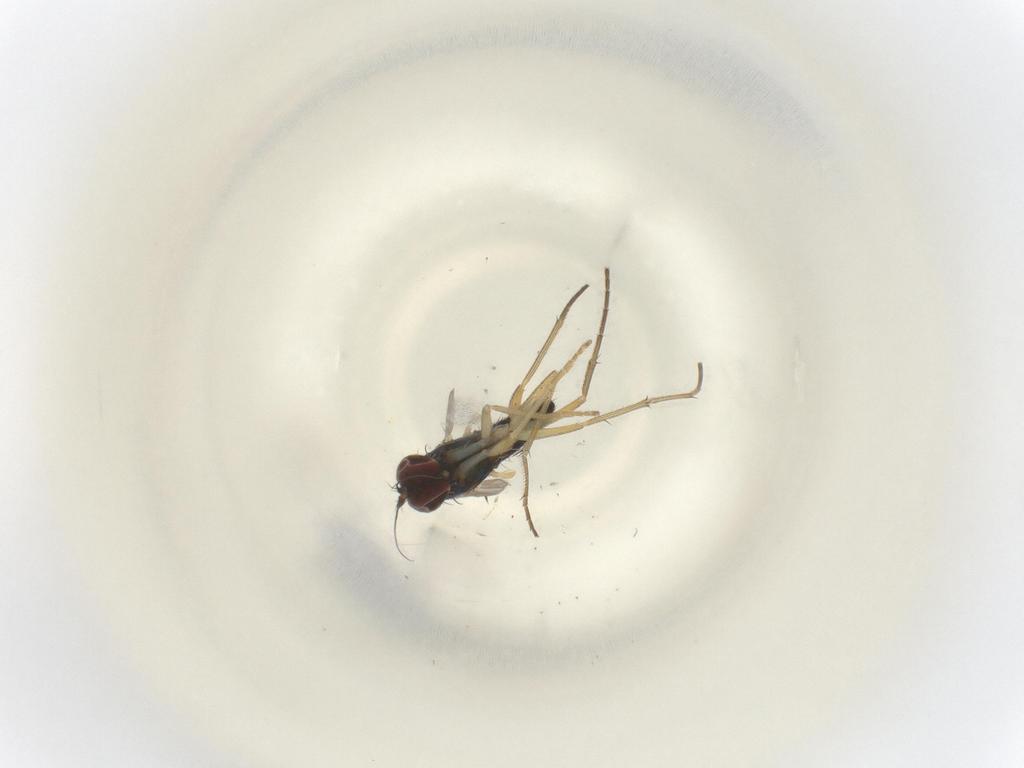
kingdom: Animalia
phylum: Arthropoda
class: Insecta
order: Diptera
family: Dolichopodidae
